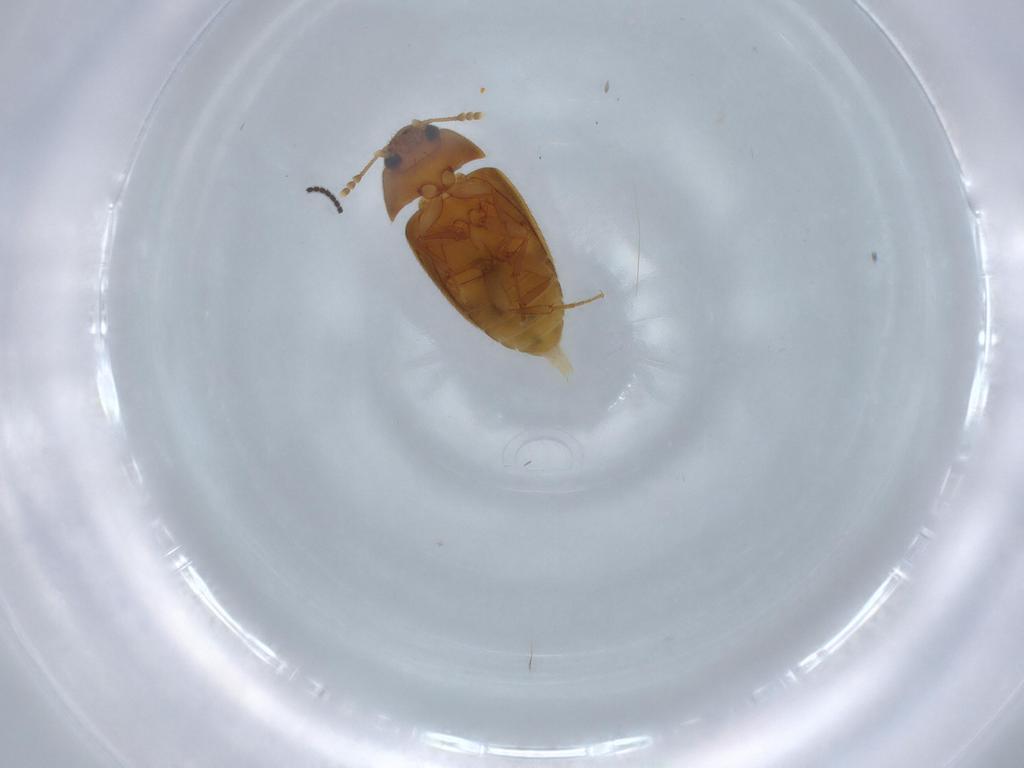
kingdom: Animalia
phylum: Arthropoda
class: Insecta
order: Coleoptera
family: Mycetophagidae
